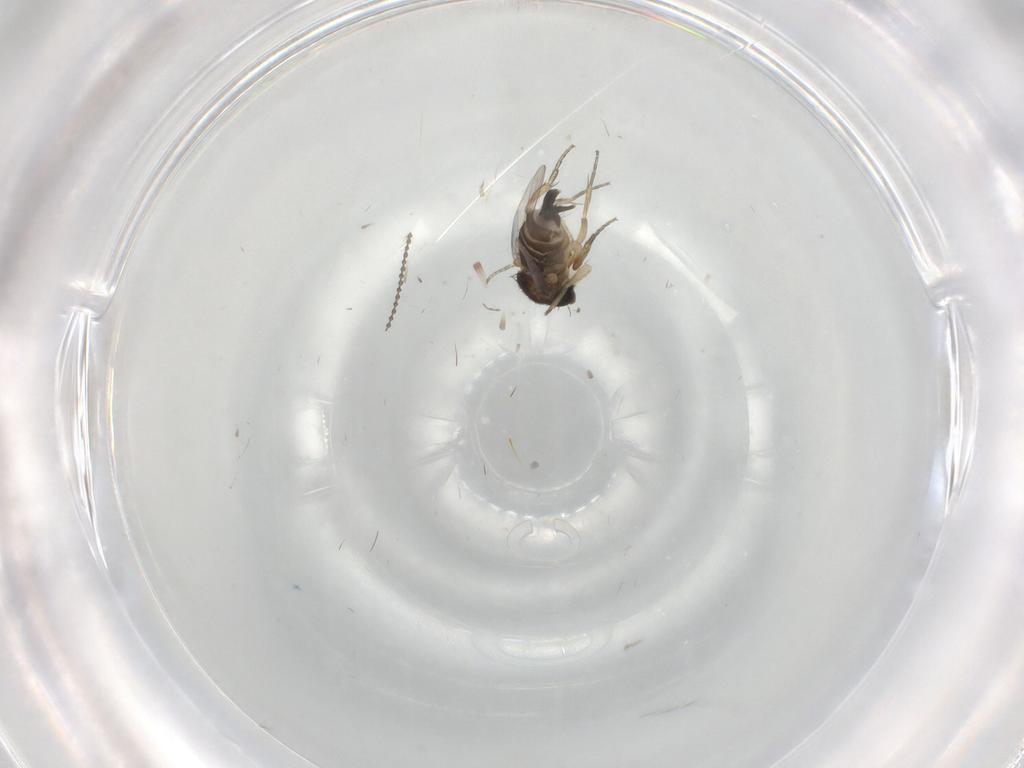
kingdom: Animalia
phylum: Arthropoda
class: Insecta
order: Diptera
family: Cecidomyiidae
